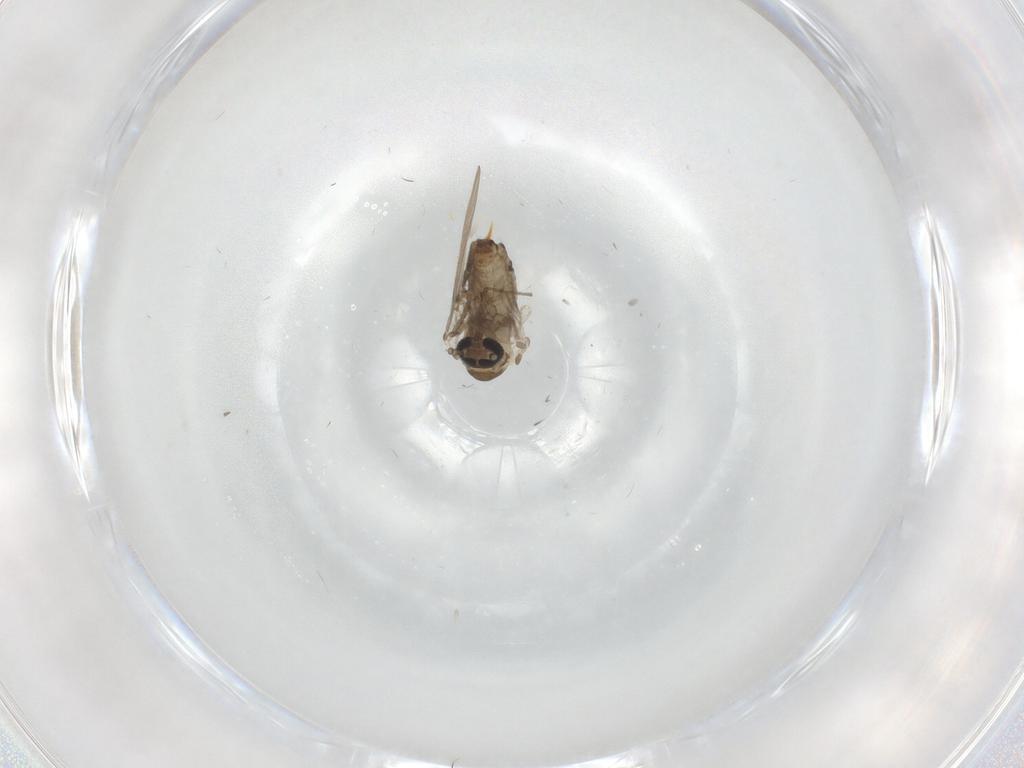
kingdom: Animalia
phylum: Arthropoda
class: Insecta
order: Diptera
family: Psychodidae
